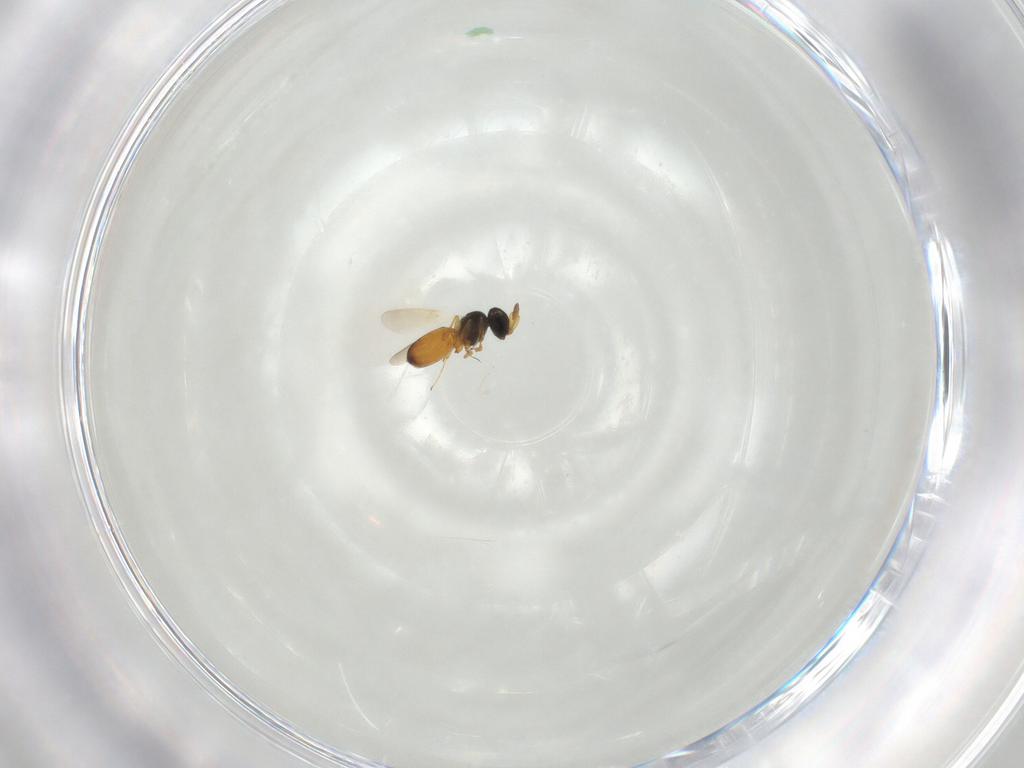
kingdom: Animalia
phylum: Arthropoda
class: Insecta
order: Hymenoptera
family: Platygastridae
